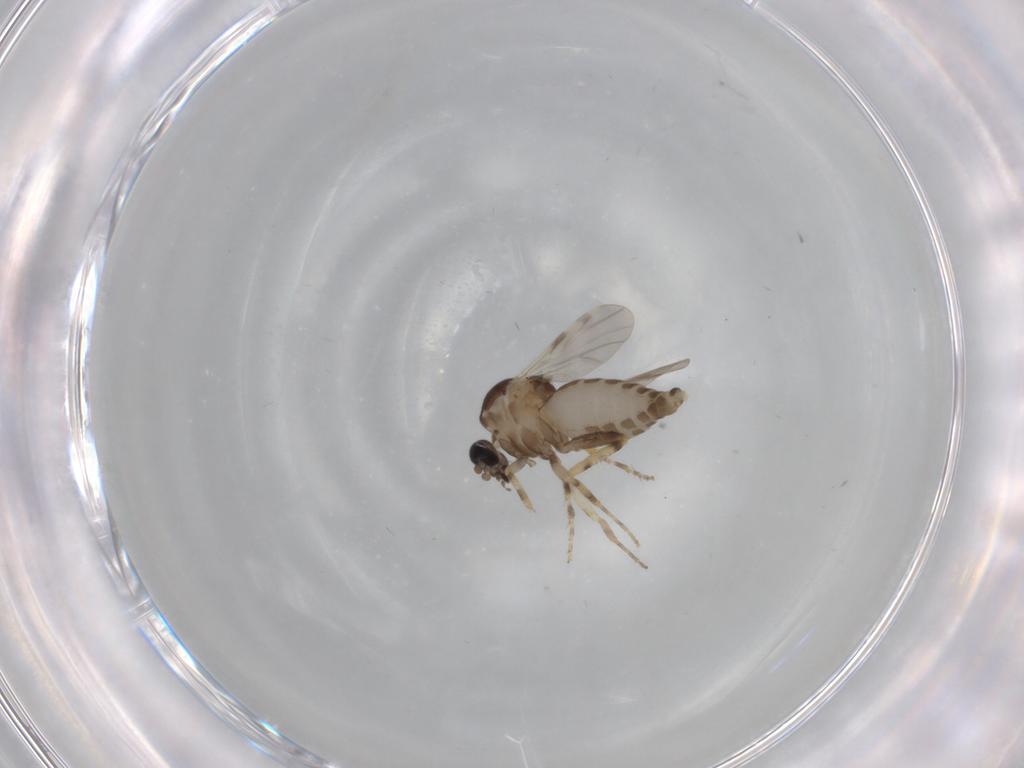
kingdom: Animalia
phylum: Arthropoda
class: Insecta
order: Diptera
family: Ceratopogonidae
